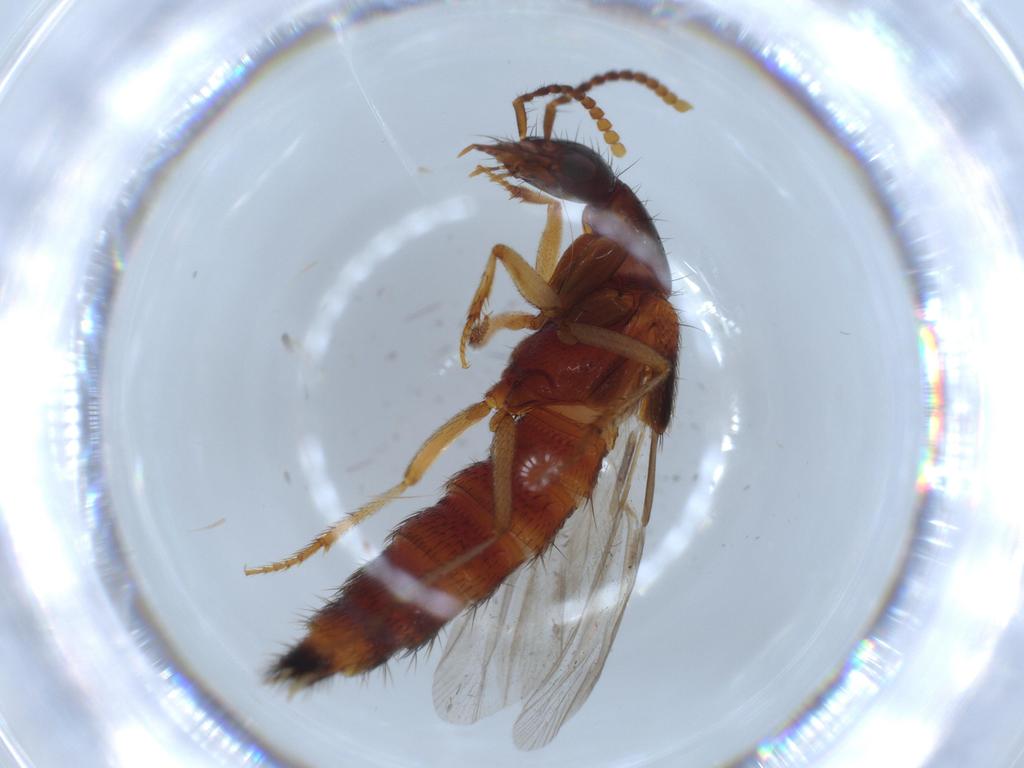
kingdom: Animalia
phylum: Arthropoda
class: Insecta
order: Coleoptera
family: Staphylinidae
